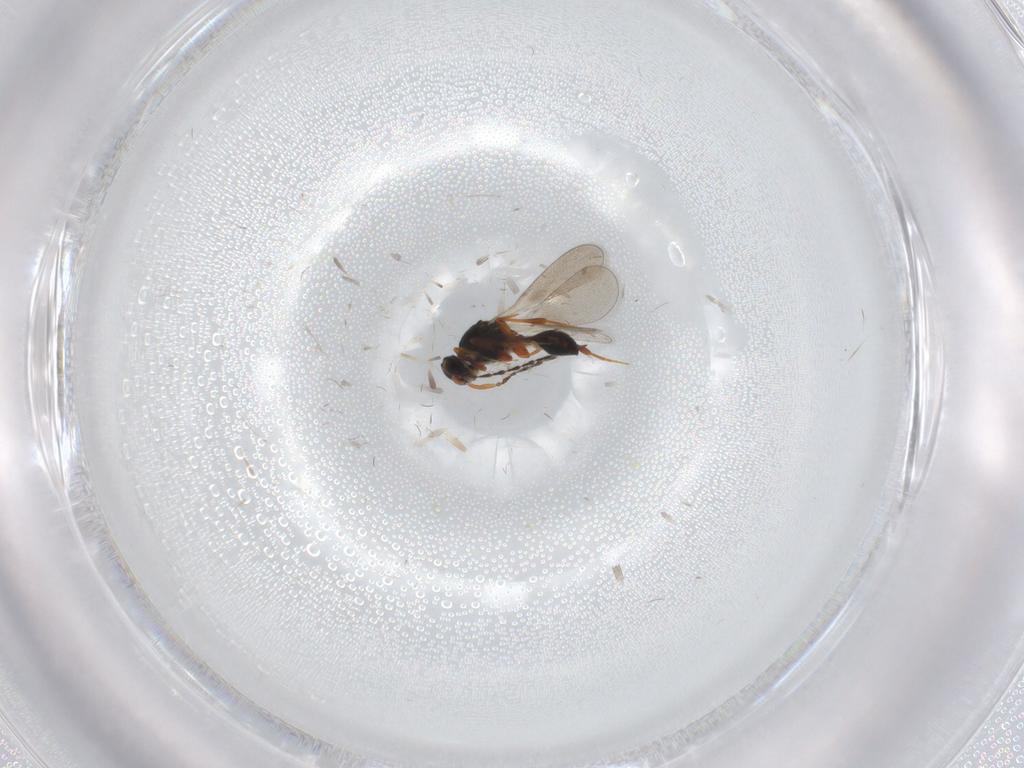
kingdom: Animalia
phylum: Arthropoda
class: Insecta
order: Hymenoptera
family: Platygastridae
